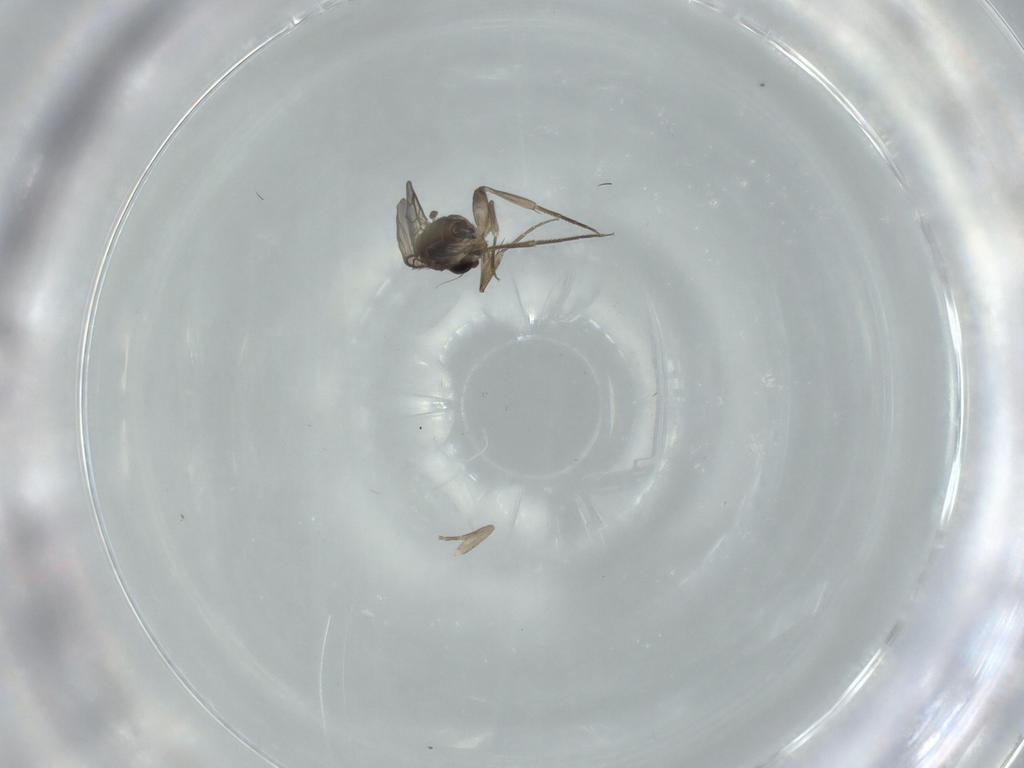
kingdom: Animalia
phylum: Arthropoda
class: Insecta
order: Diptera
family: Phoridae
